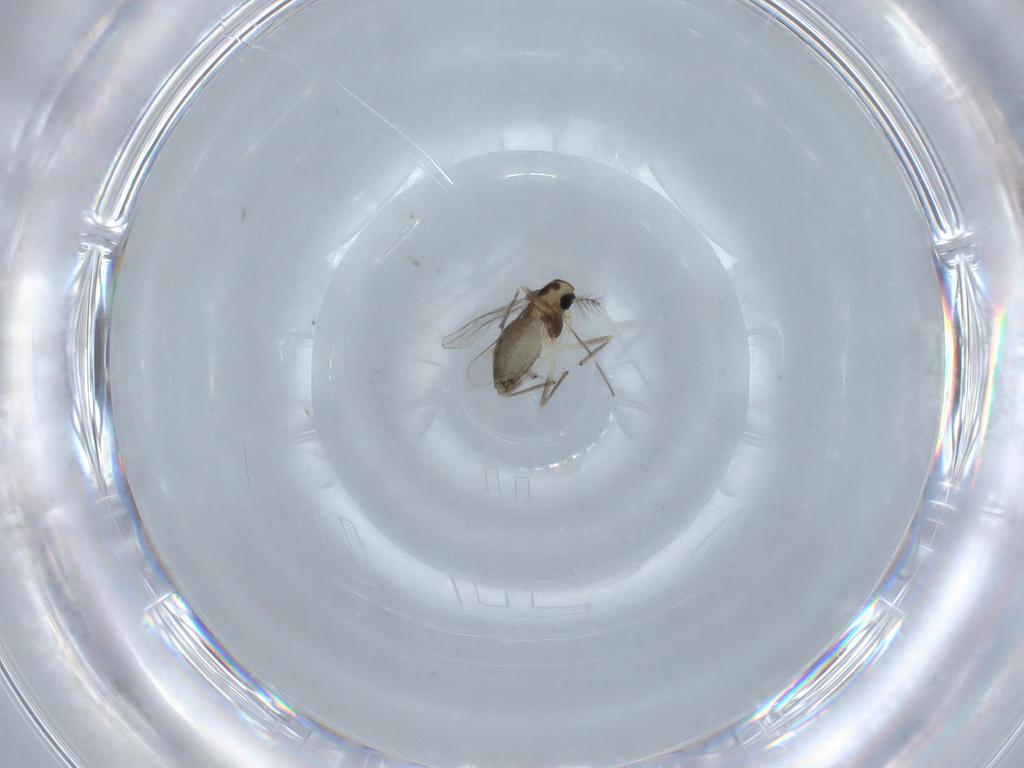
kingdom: Animalia
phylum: Arthropoda
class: Insecta
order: Diptera
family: Chironomidae
